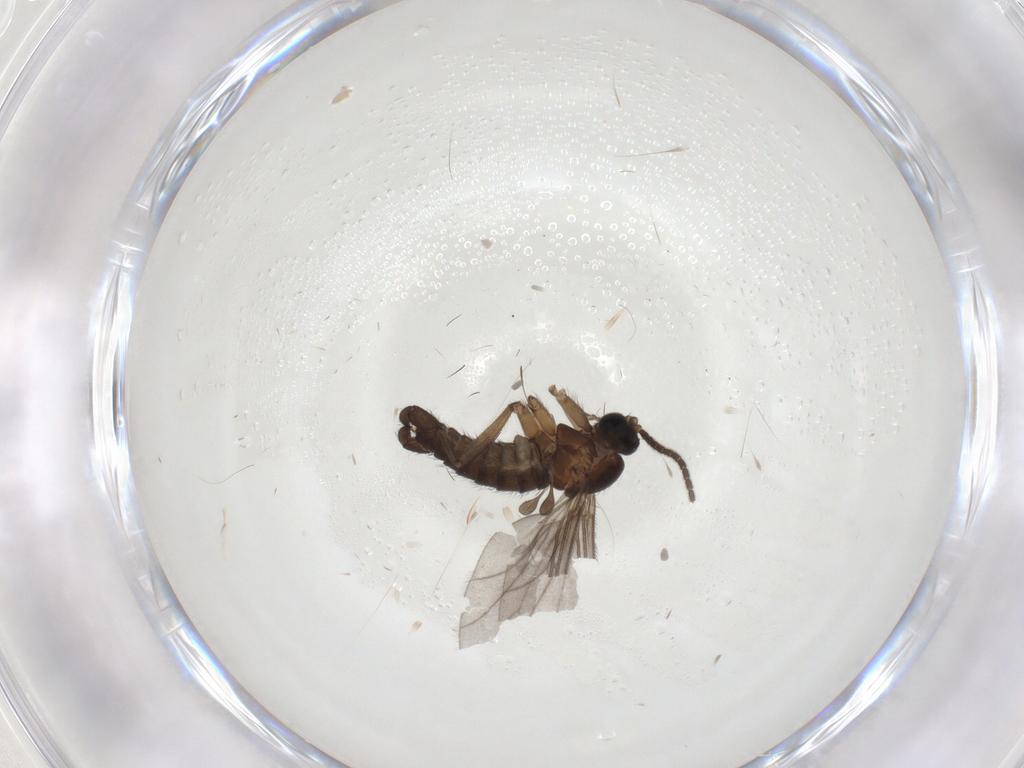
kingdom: Animalia
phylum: Arthropoda
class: Insecta
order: Diptera
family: Sciaridae
